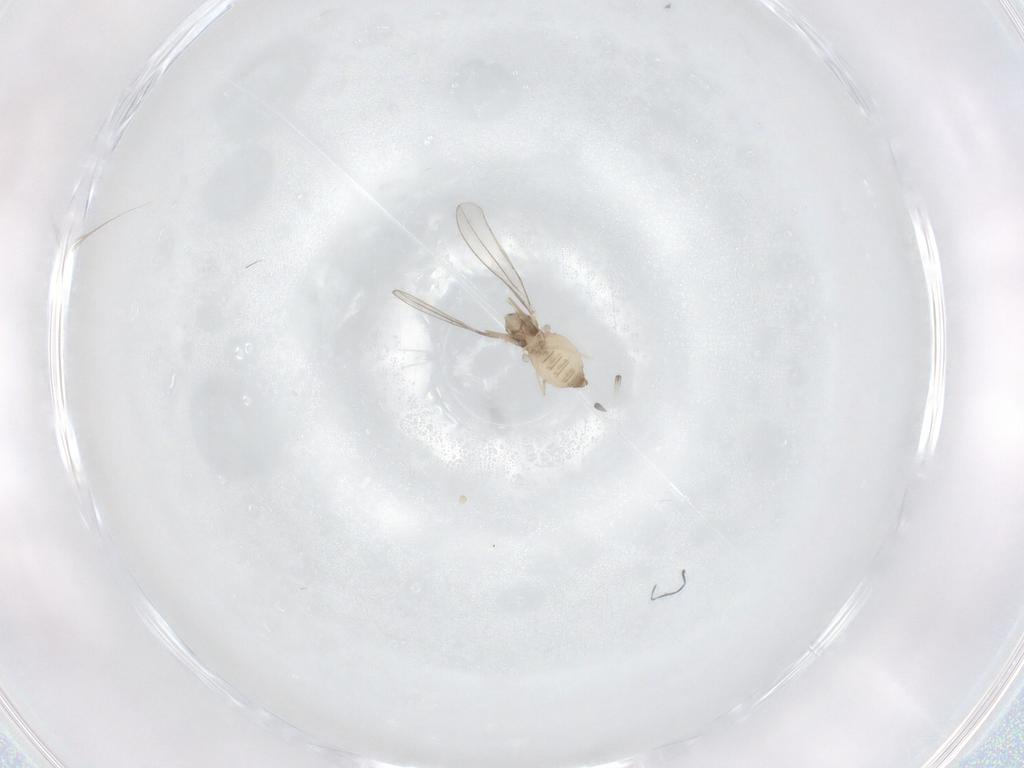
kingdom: Animalia
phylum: Arthropoda
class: Insecta
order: Diptera
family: Cecidomyiidae
